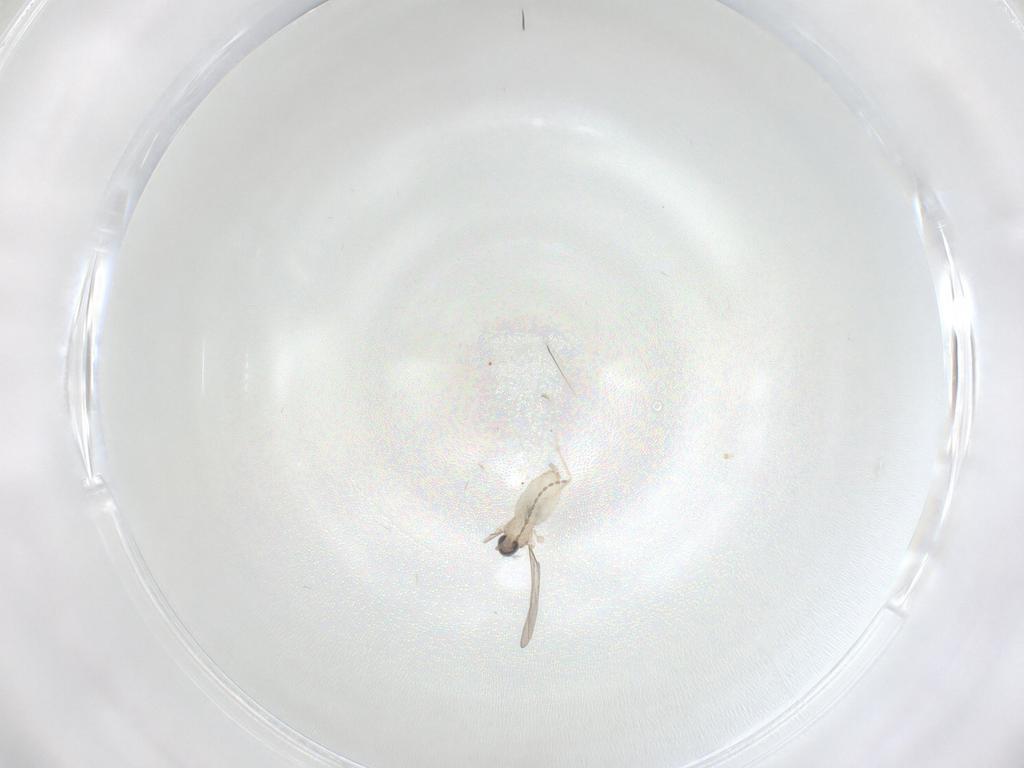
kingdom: Animalia
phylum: Arthropoda
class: Insecta
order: Diptera
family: Cecidomyiidae
